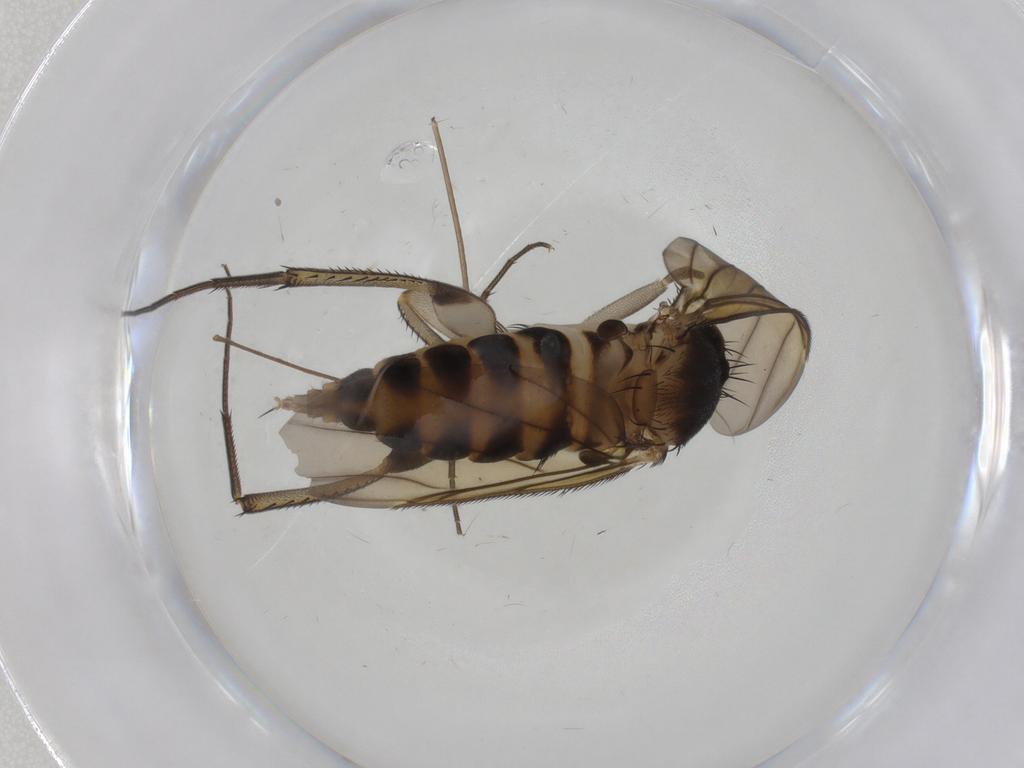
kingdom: Animalia
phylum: Arthropoda
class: Insecta
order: Diptera
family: Phoridae
